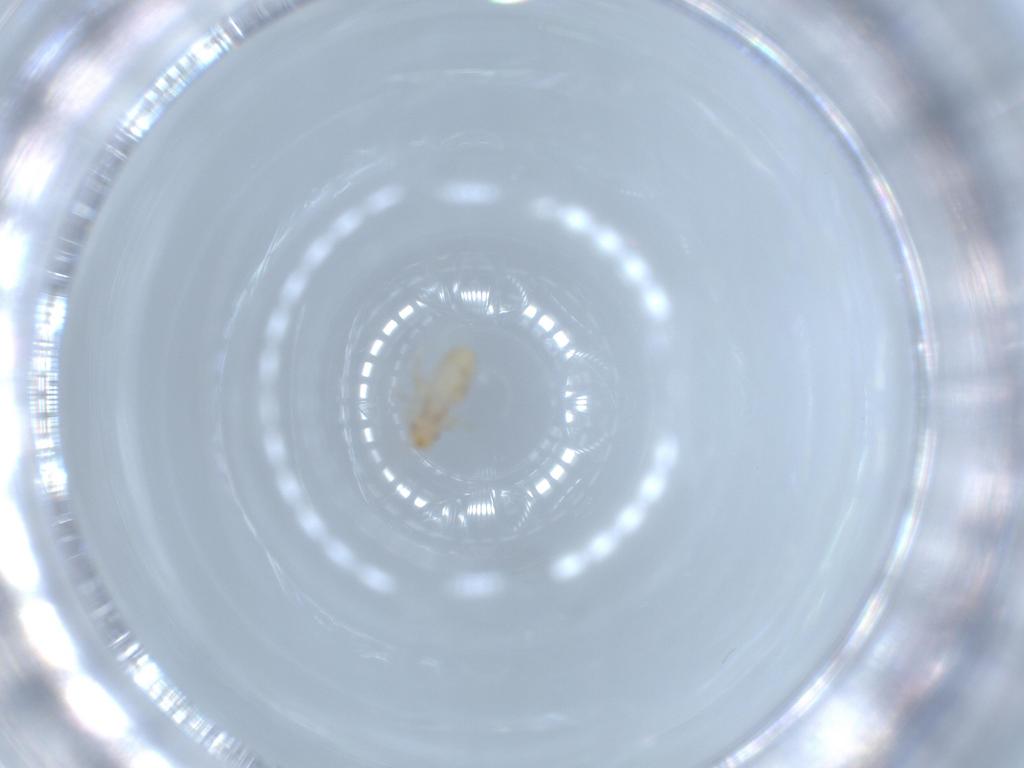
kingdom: Animalia
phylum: Arthropoda
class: Insecta
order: Psocodea
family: Liposcelididae
